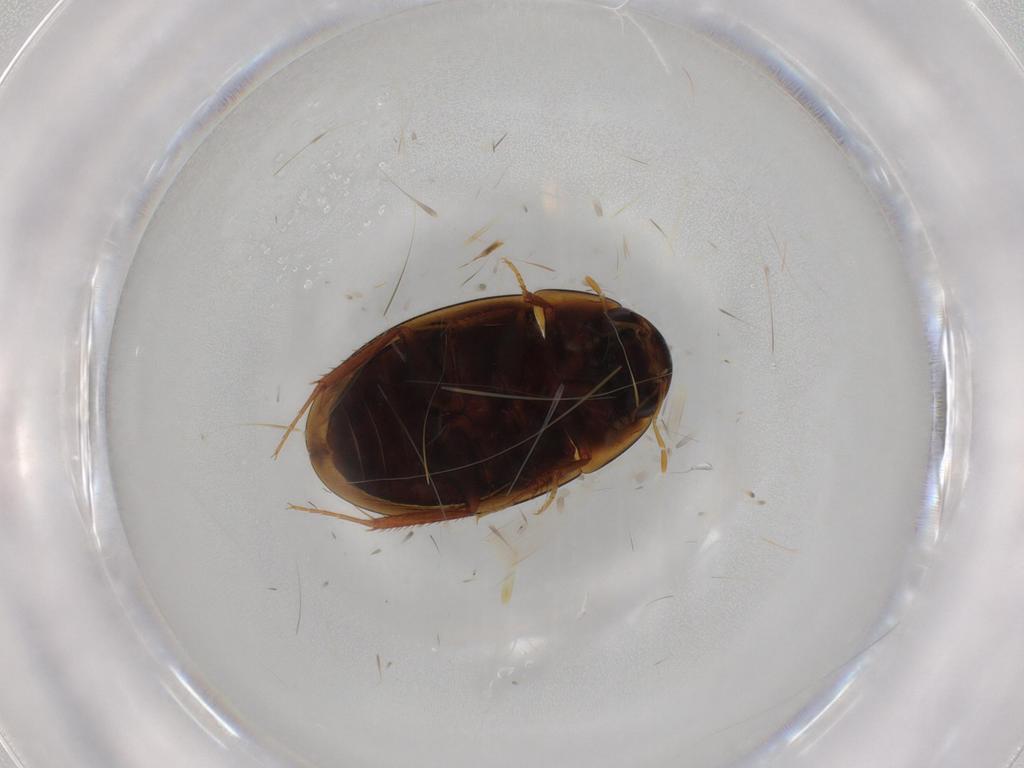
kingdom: Animalia
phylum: Arthropoda
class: Insecta
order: Coleoptera
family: Hydrophilidae
